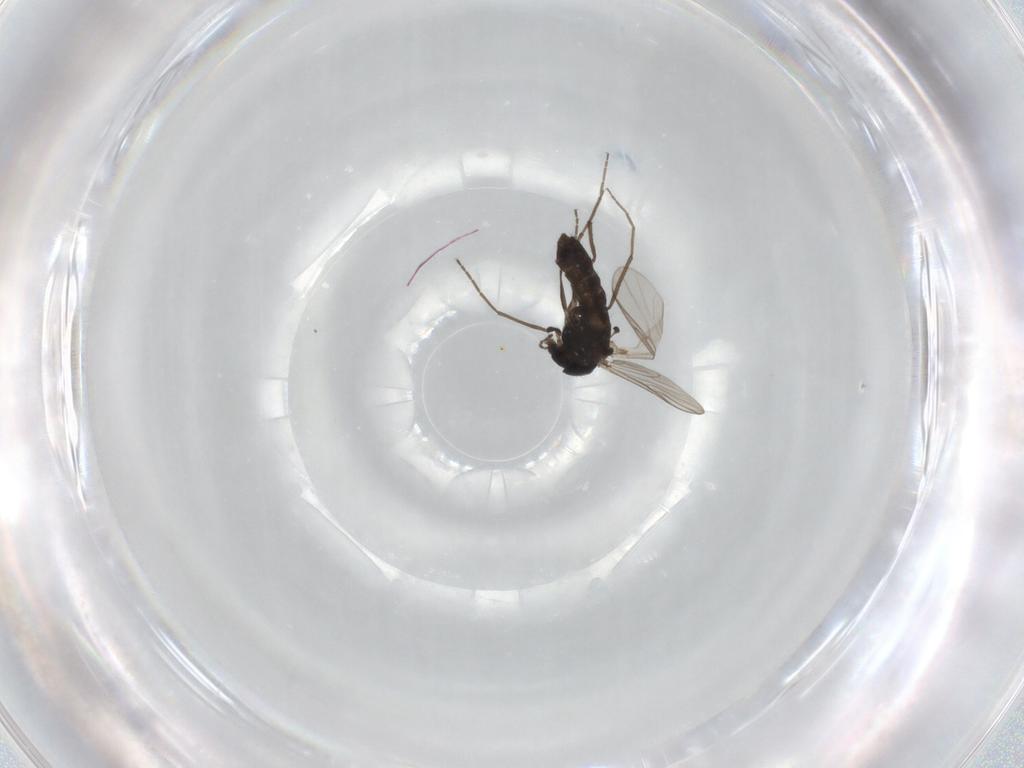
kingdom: Animalia
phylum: Arthropoda
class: Insecta
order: Diptera
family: Chironomidae
